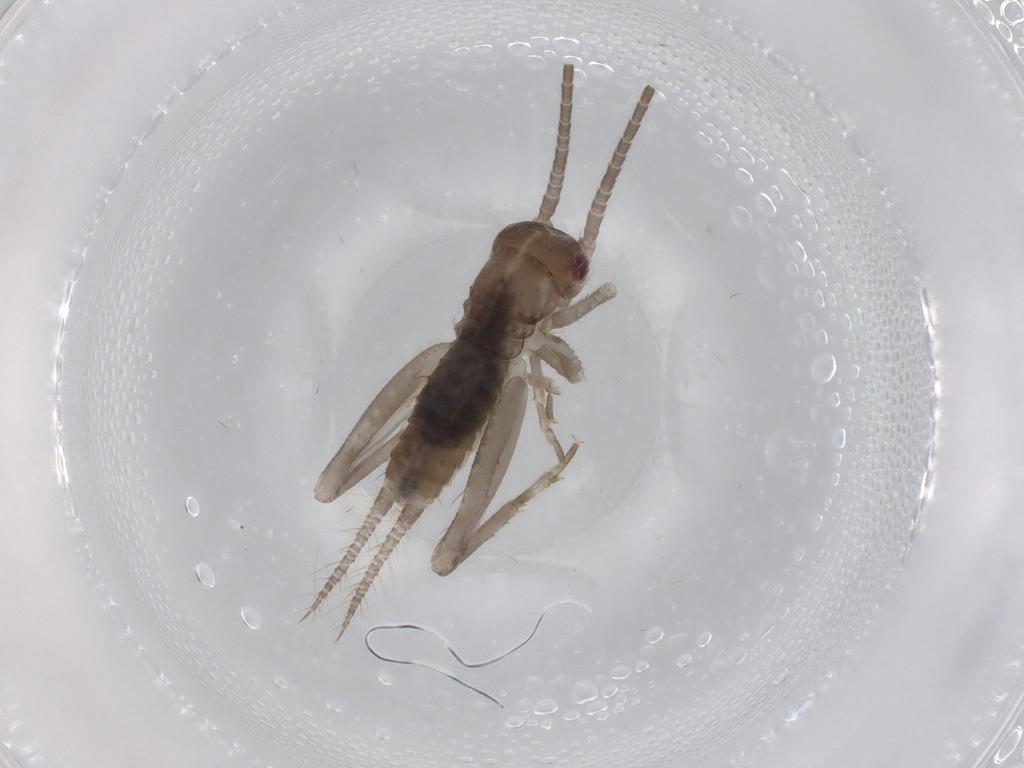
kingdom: Animalia
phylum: Arthropoda
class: Insecta
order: Orthoptera
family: Gryllidae
